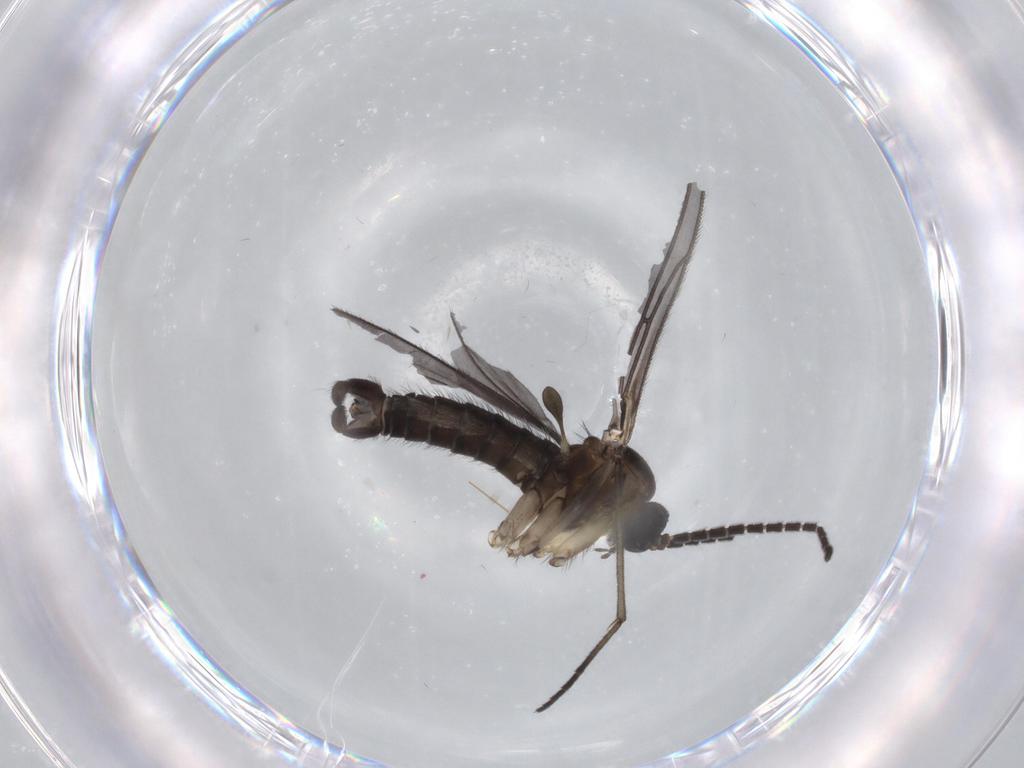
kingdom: Animalia
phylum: Arthropoda
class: Insecta
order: Diptera
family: Sciaridae
